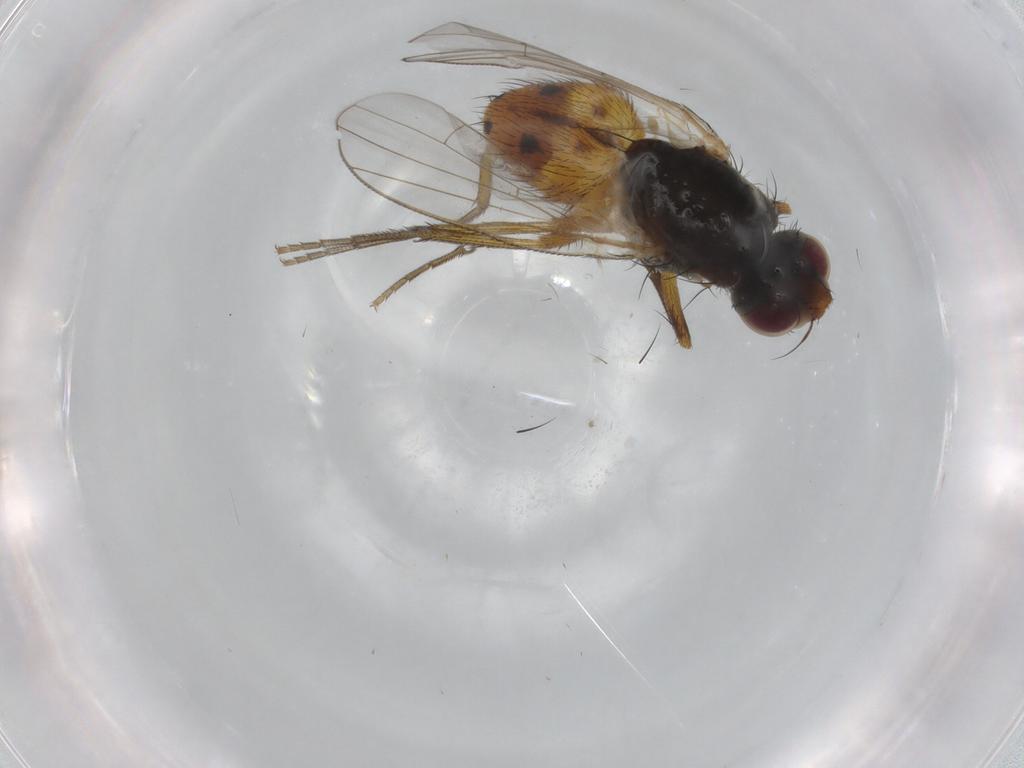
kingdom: Animalia
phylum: Arthropoda
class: Insecta
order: Diptera
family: Muscidae
